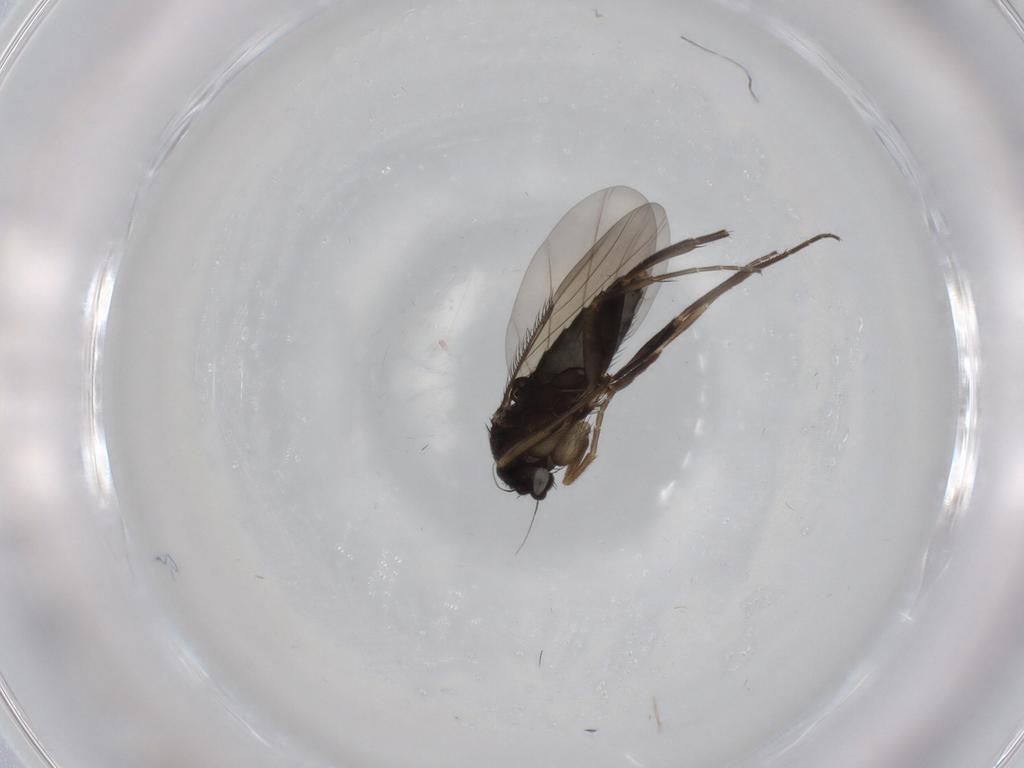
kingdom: Animalia
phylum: Arthropoda
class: Insecta
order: Diptera
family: Phoridae
